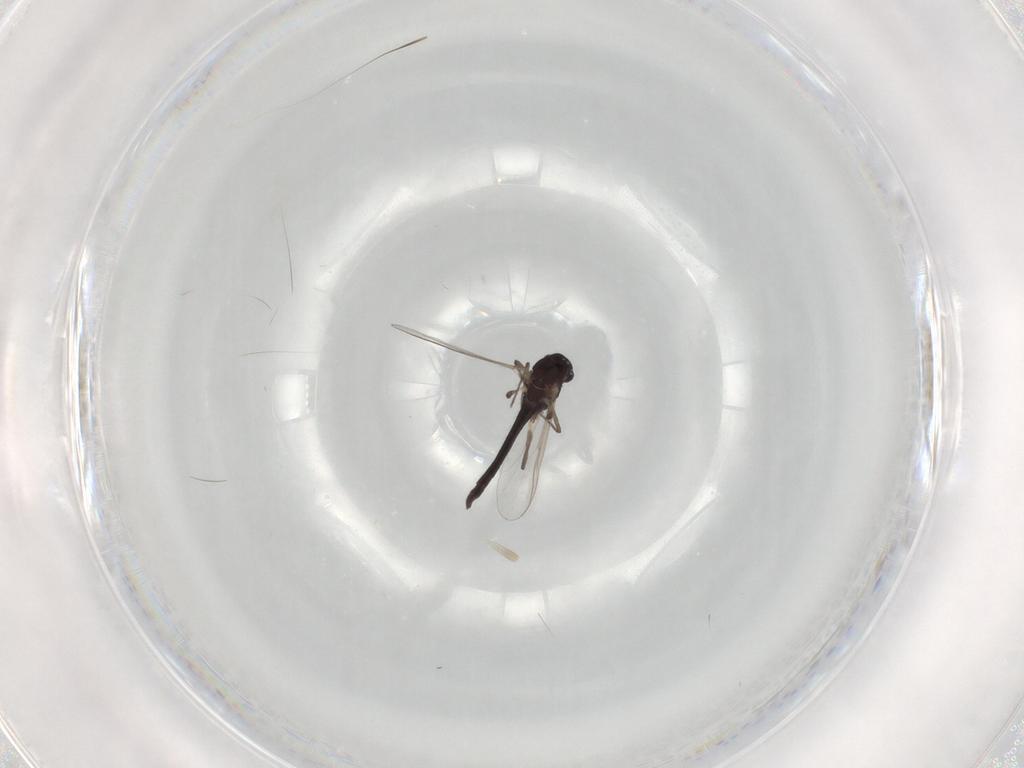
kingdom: Animalia
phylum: Arthropoda
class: Insecta
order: Diptera
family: Chironomidae
